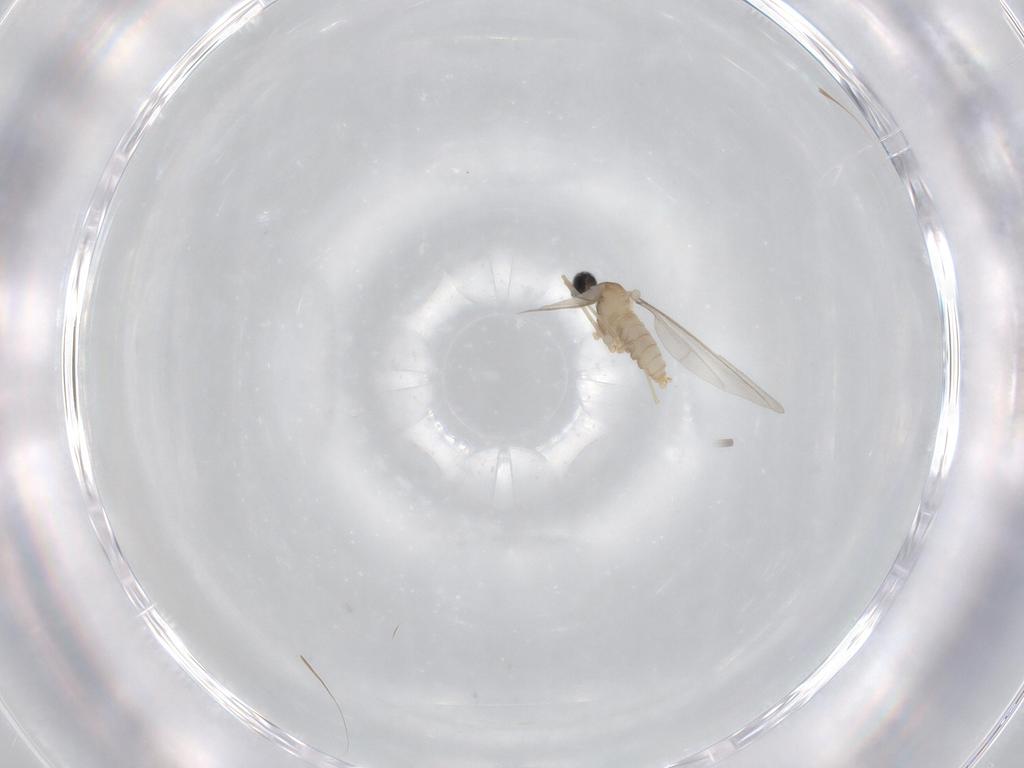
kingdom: Animalia
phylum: Arthropoda
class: Insecta
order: Diptera
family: Cecidomyiidae
